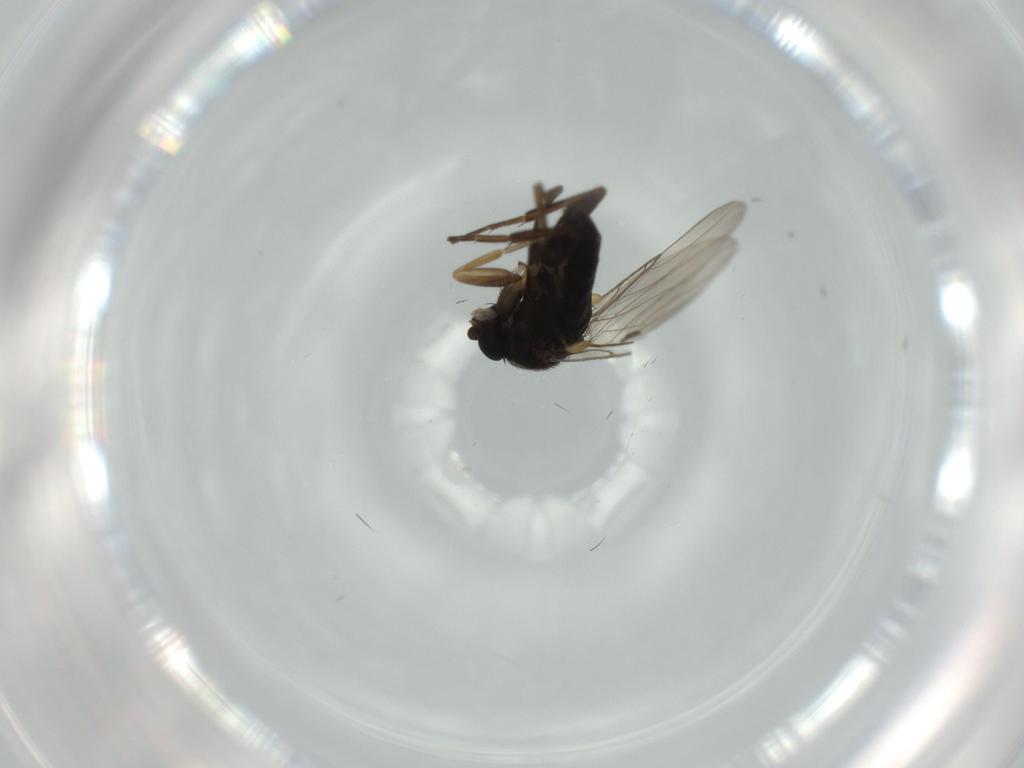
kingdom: Animalia
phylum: Arthropoda
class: Insecta
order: Diptera
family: Phoridae
